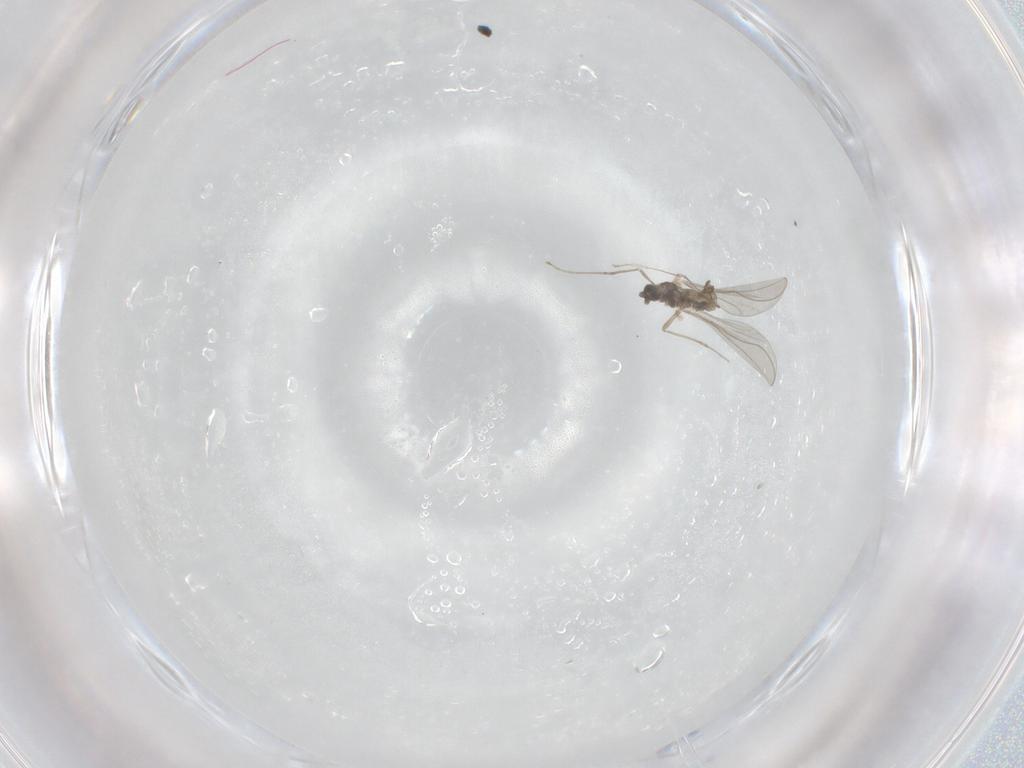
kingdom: Animalia
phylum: Arthropoda
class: Insecta
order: Diptera
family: Cecidomyiidae
